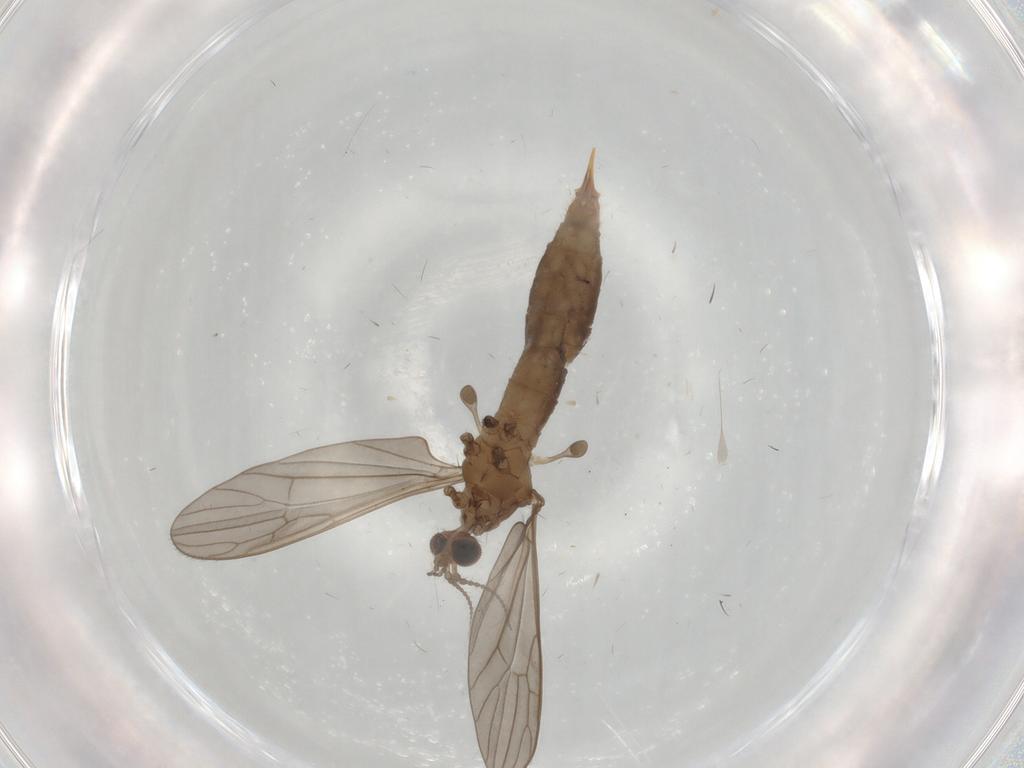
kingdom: Animalia
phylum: Arthropoda
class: Insecta
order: Diptera
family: Limoniidae
